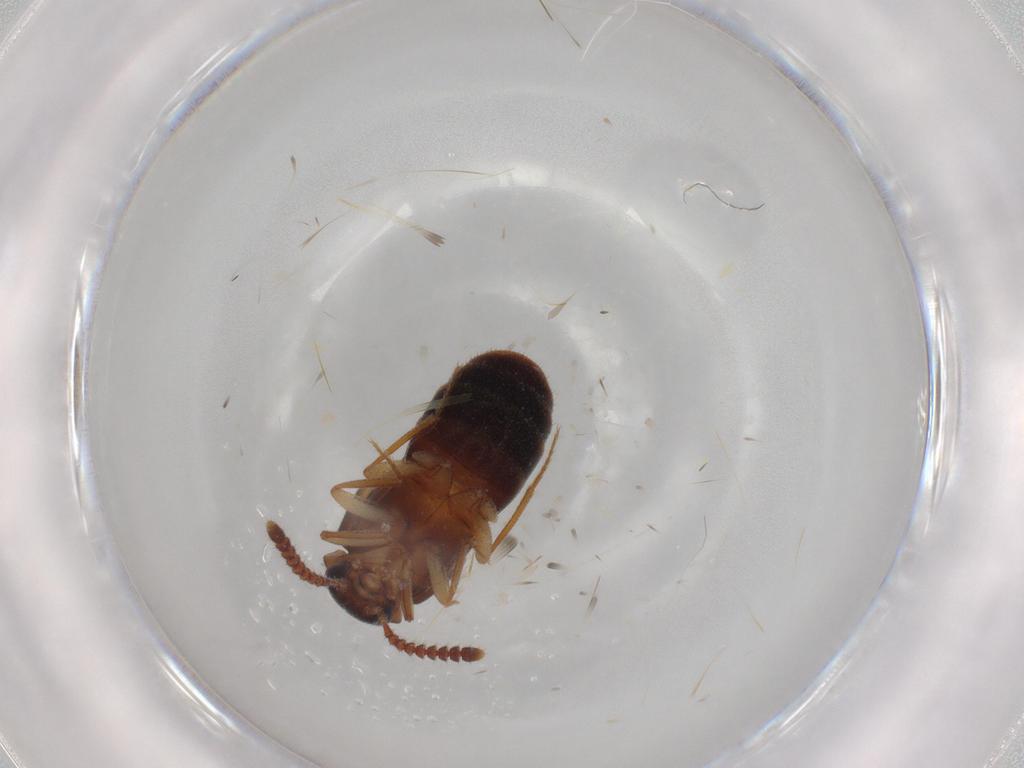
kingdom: Animalia
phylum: Arthropoda
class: Insecta
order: Coleoptera
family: Staphylinidae
